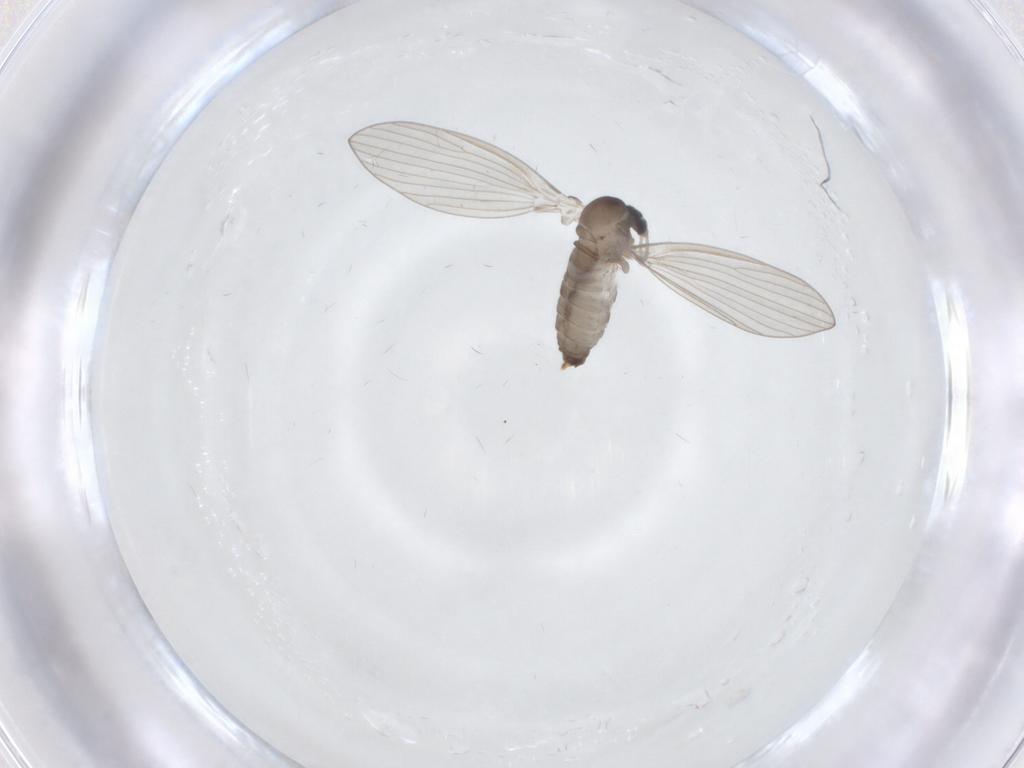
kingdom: Animalia
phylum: Arthropoda
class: Insecta
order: Diptera
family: Psychodidae
